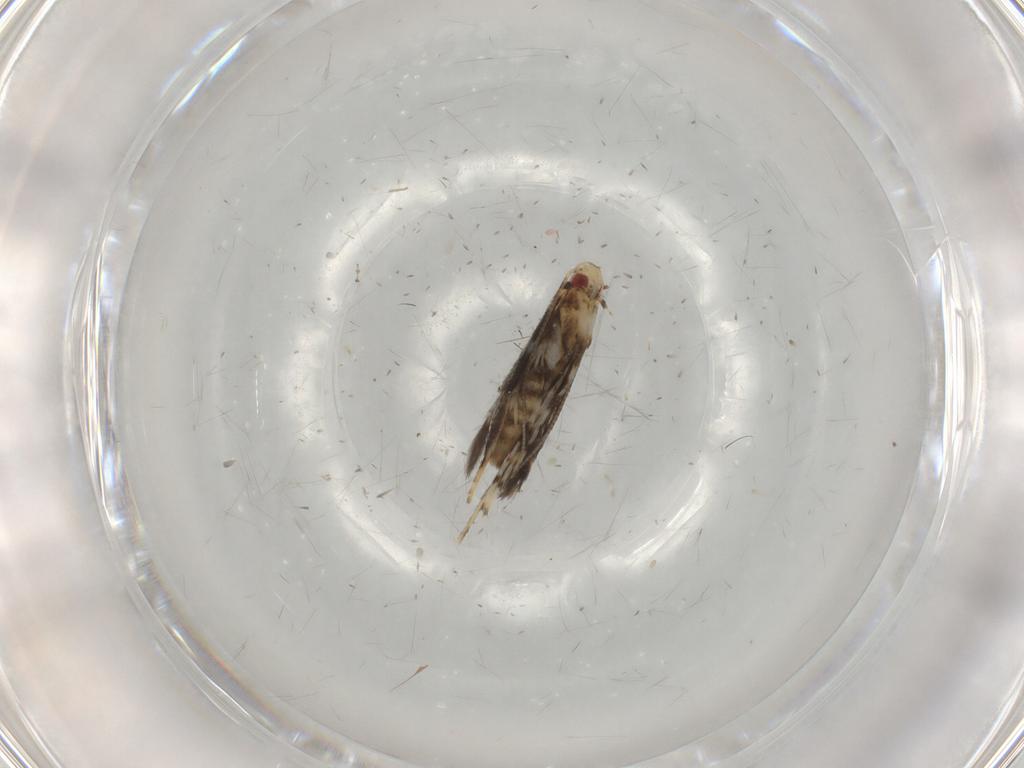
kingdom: Animalia
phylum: Arthropoda
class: Insecta
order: Lepidoptera
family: Gracillariidae
